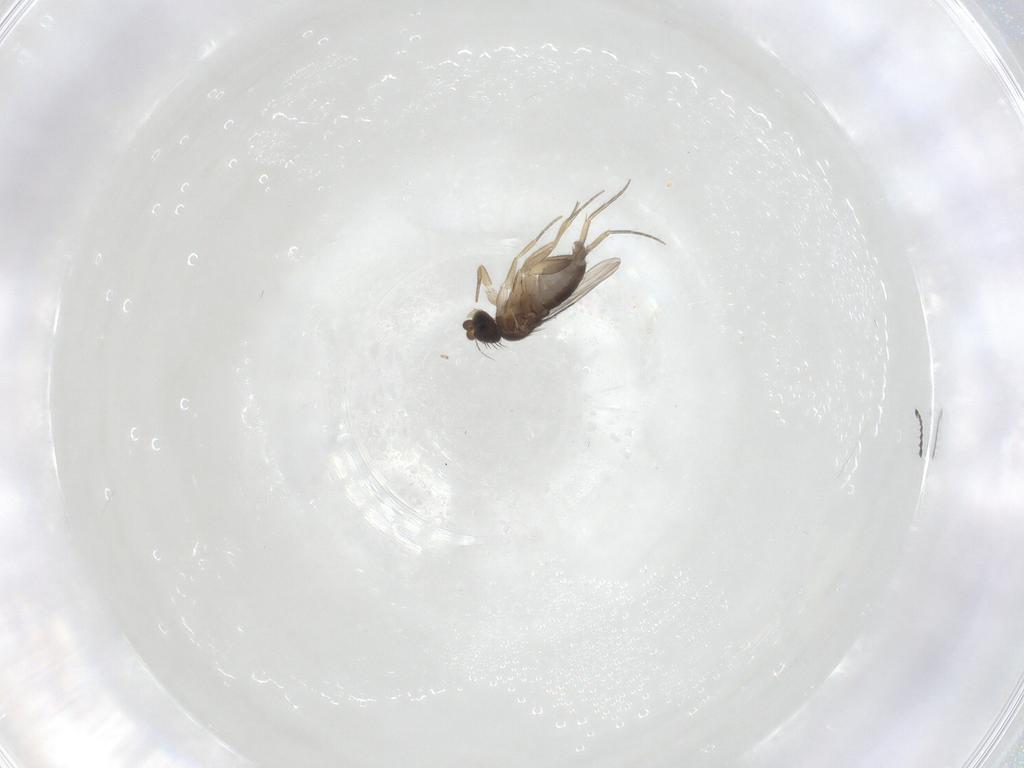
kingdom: Animalia
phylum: Arthropoda
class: Insecta
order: Diptera
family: Phoridae
